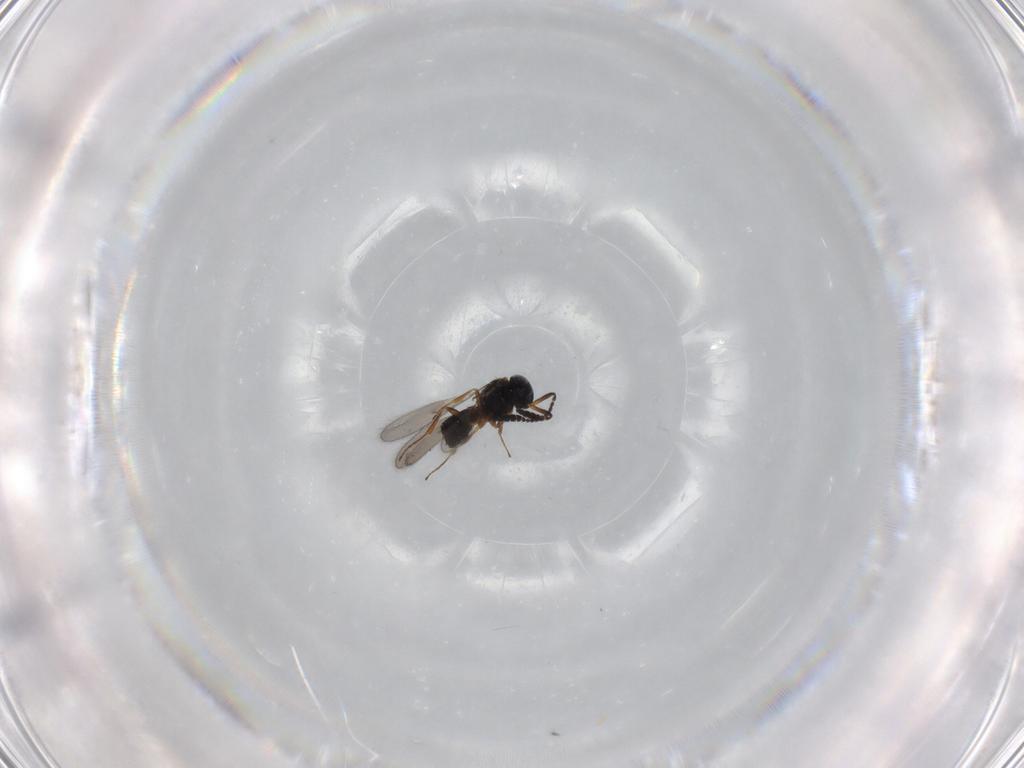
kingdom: Animalia
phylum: Arthropoda
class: Insecta
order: Hymenoptera
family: Scelionidae
